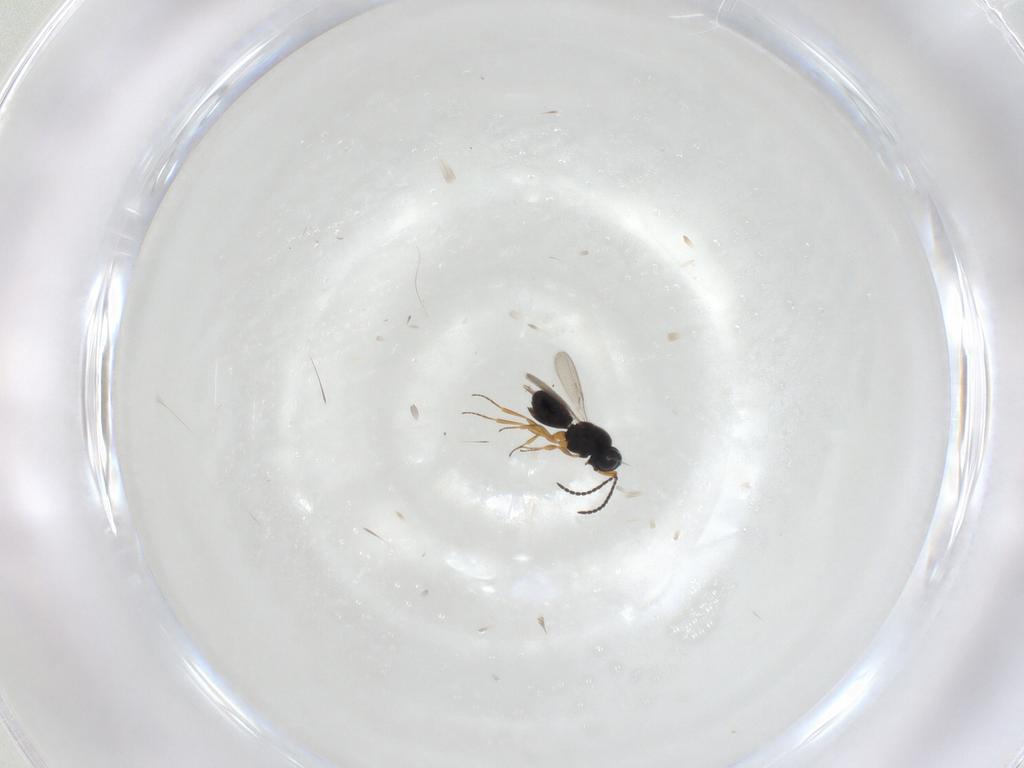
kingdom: Animalia
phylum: Arthropoda
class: Insecta
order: Hymenoptera
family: Scelionidae
